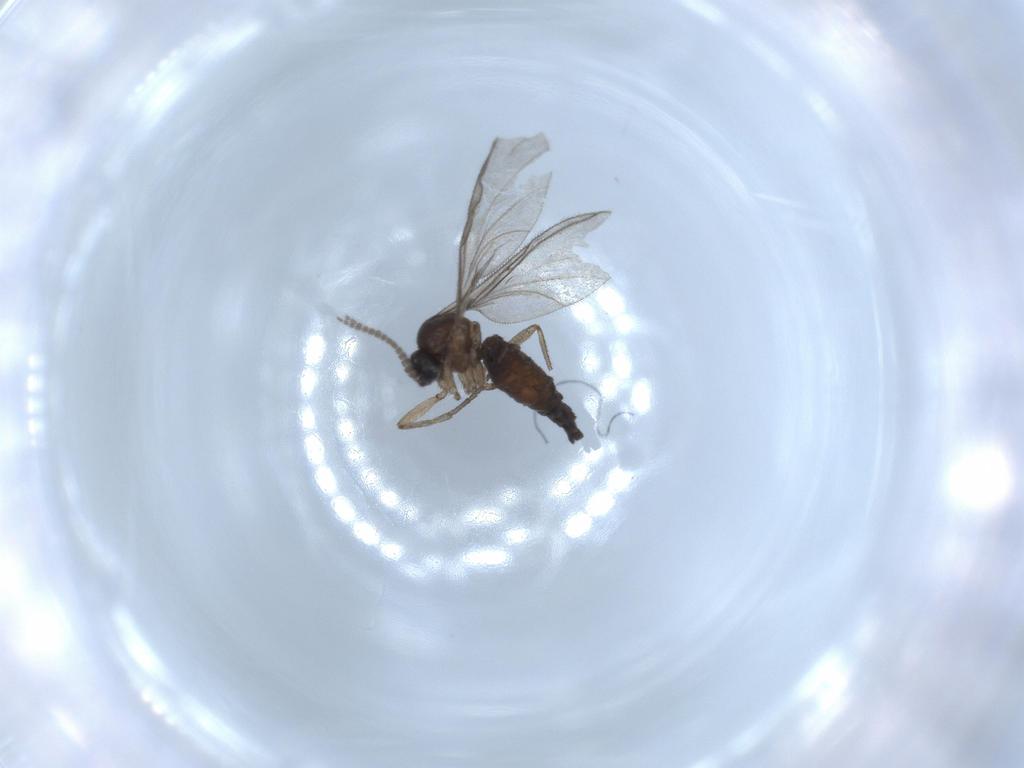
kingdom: Animalia
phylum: Arthropoda
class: Insecta
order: Diptera
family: Sciaridae
